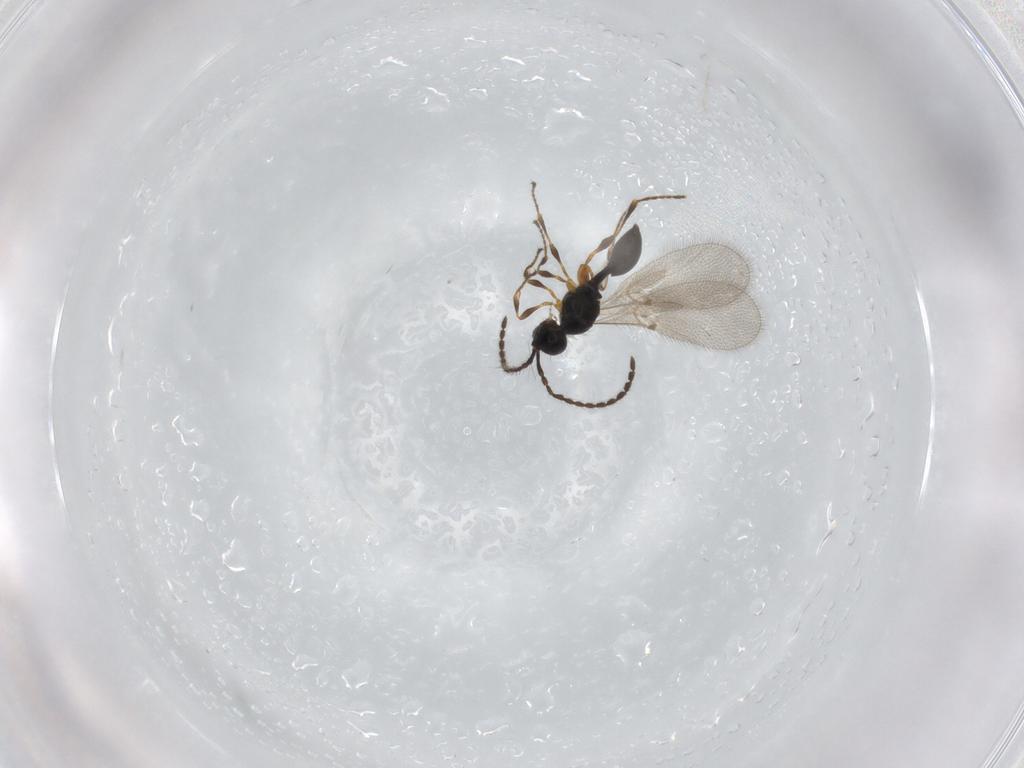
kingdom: Animalia
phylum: Arthropoda
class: Insecta
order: Hymenoptera
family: Diapriidae
